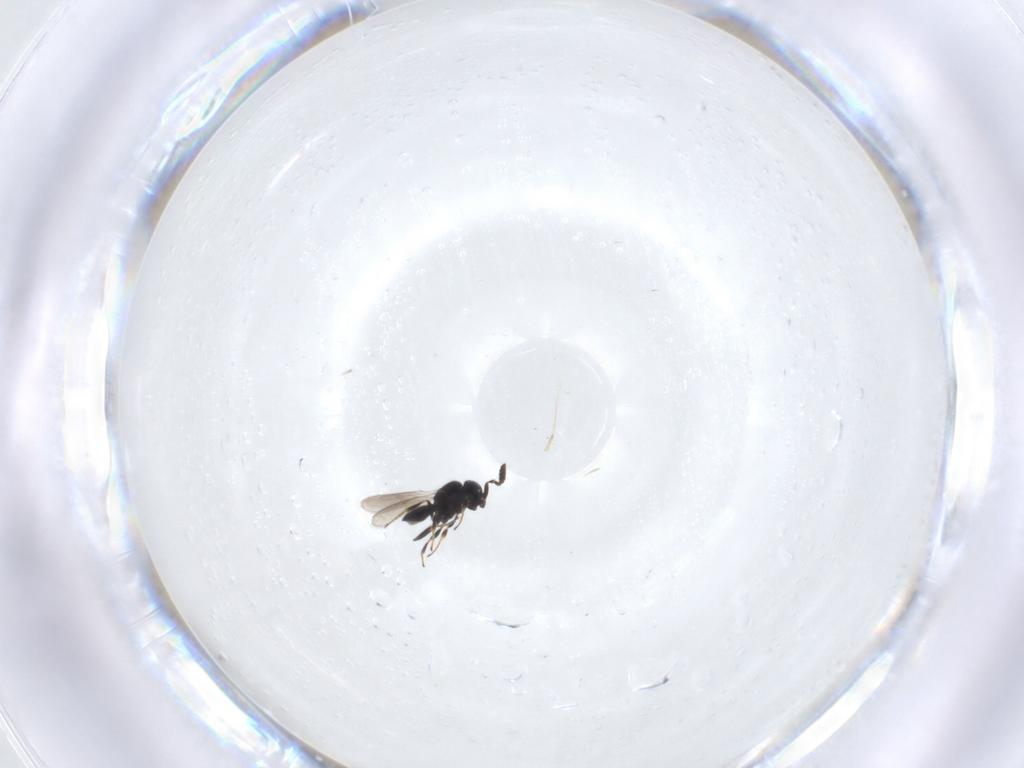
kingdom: Animalia
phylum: Arthropoda
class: Insecta
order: Hymenoptera
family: Scelionidae
